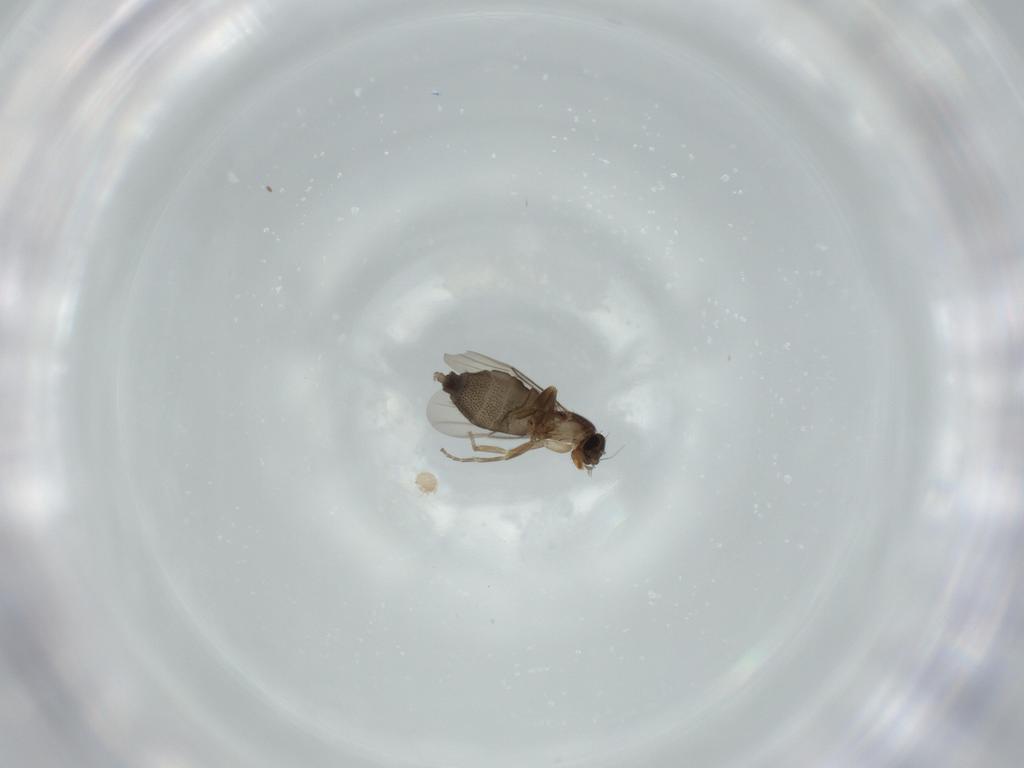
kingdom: Animalia
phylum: Arthropoda
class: Insecta
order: Diptera
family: Phoridae
